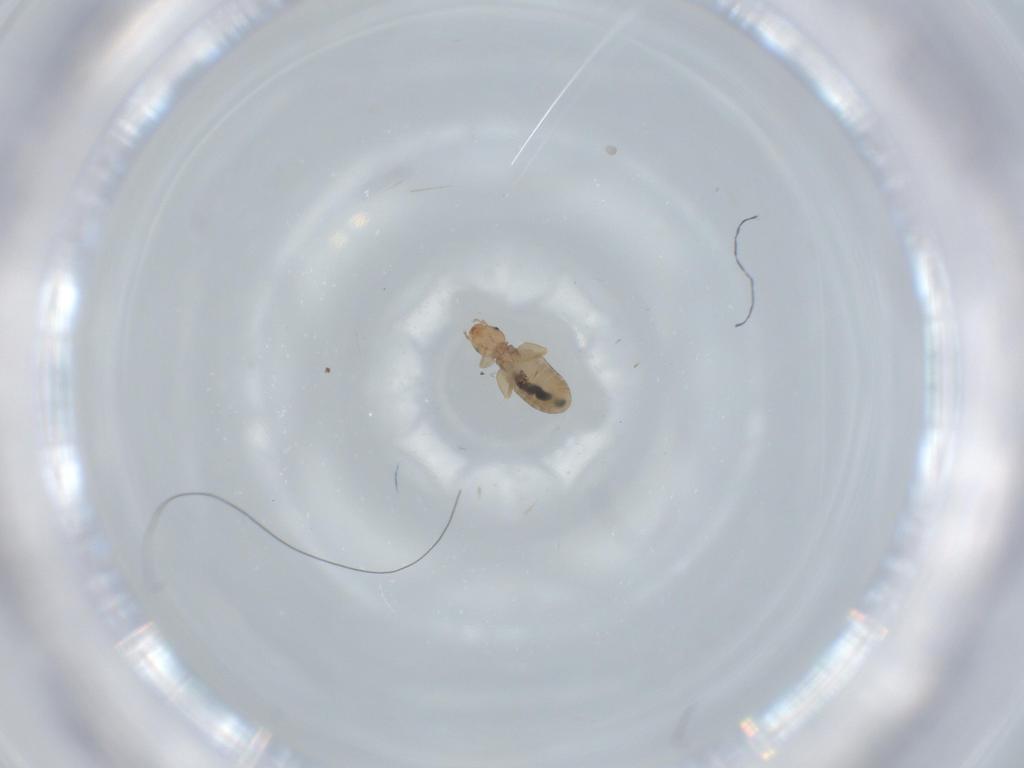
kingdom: Animalia
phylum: Arthropoda
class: Insecta
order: Psocodea
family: Liposcelididae
